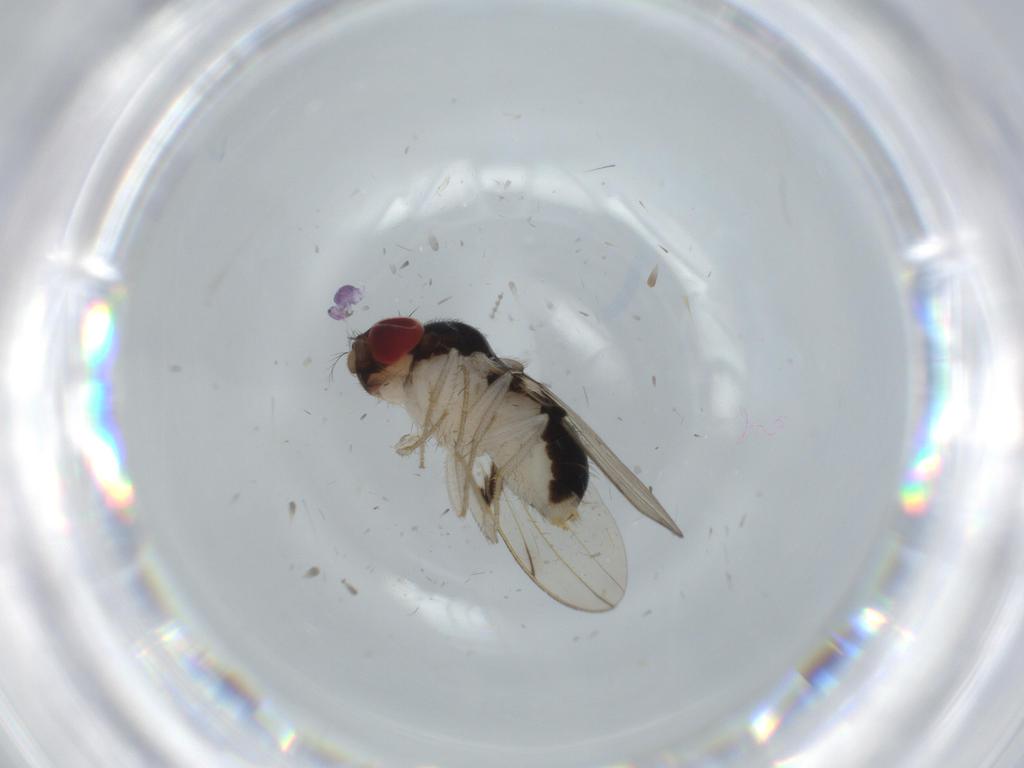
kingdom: Animalia
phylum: Arthropoda
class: Insecta
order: Diptera
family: Drosophilidae
